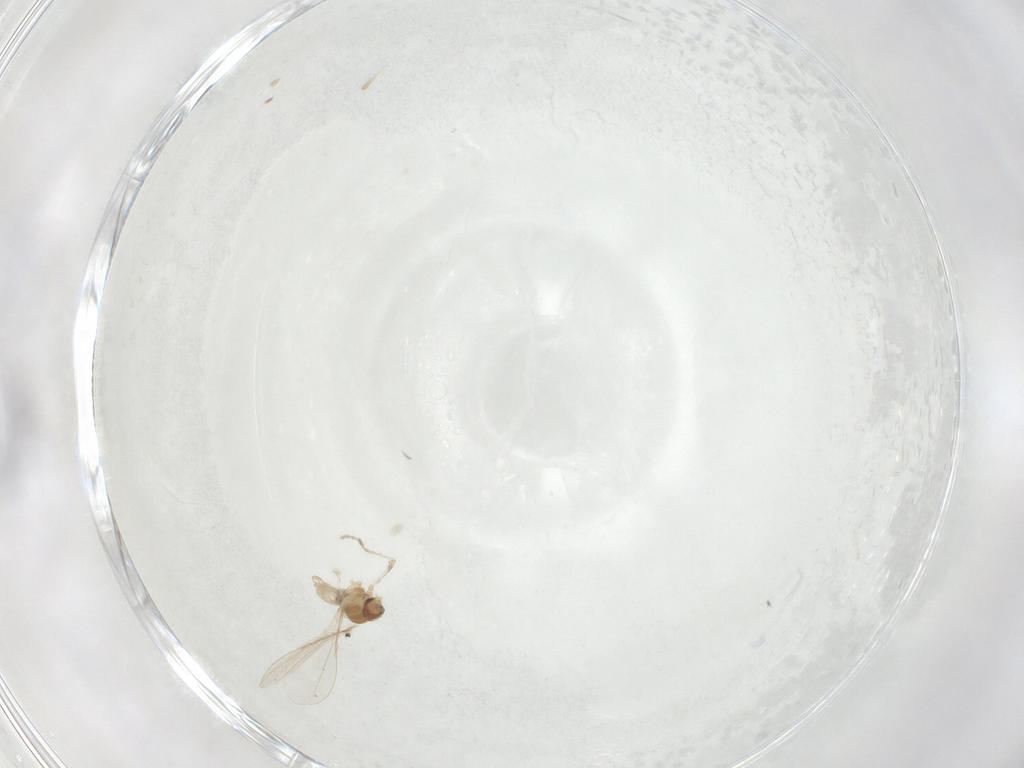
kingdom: Animalia
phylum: Arthropoda
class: Insecta
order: Diptera
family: Cecidomyiidae
